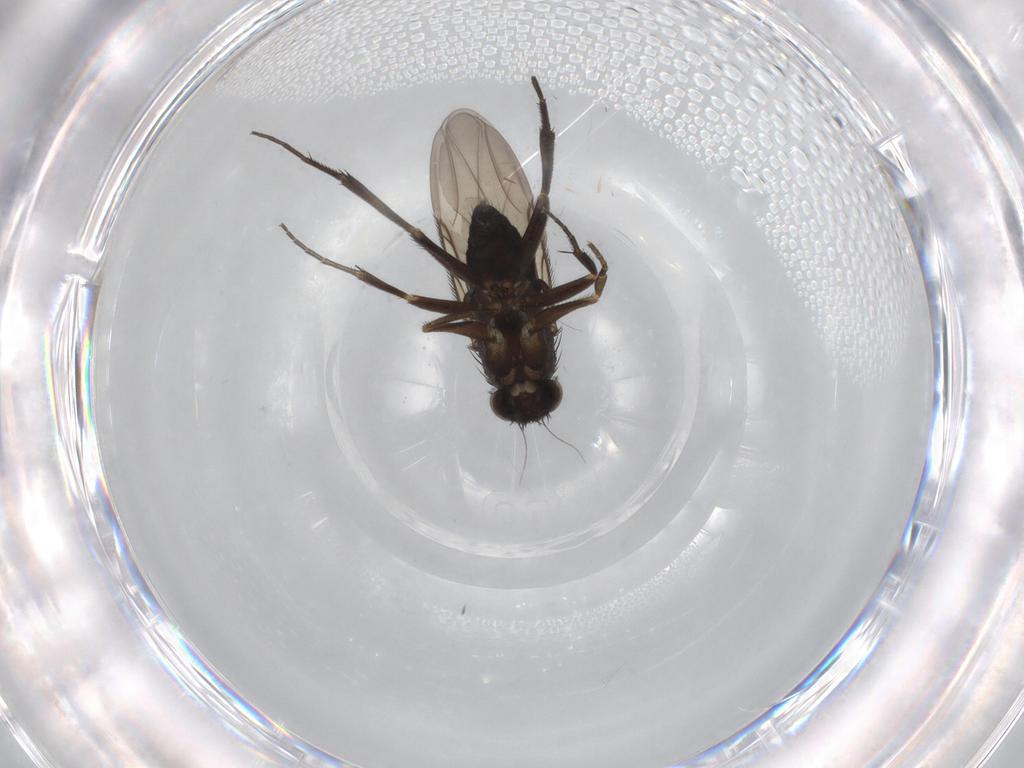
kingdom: Animalia
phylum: Arthropoda
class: Insecta
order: Diptera
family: Phoridae
